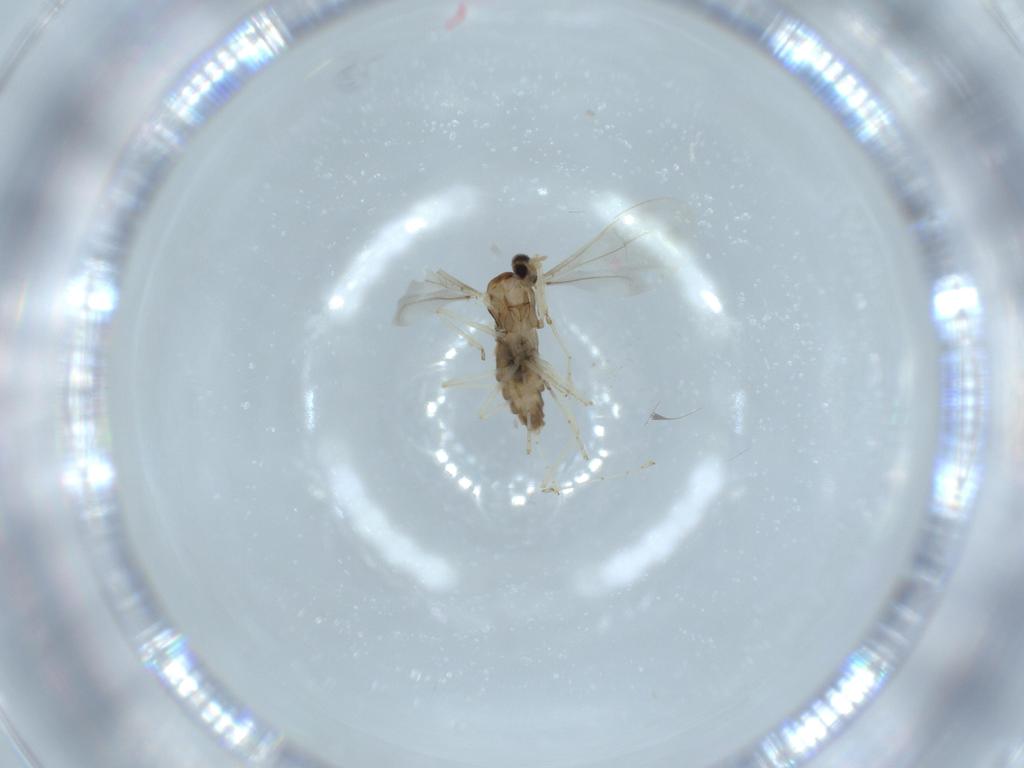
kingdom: Animalia
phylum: Arthropoda
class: Insecta
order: Diptera
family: Cecidomyiidae
